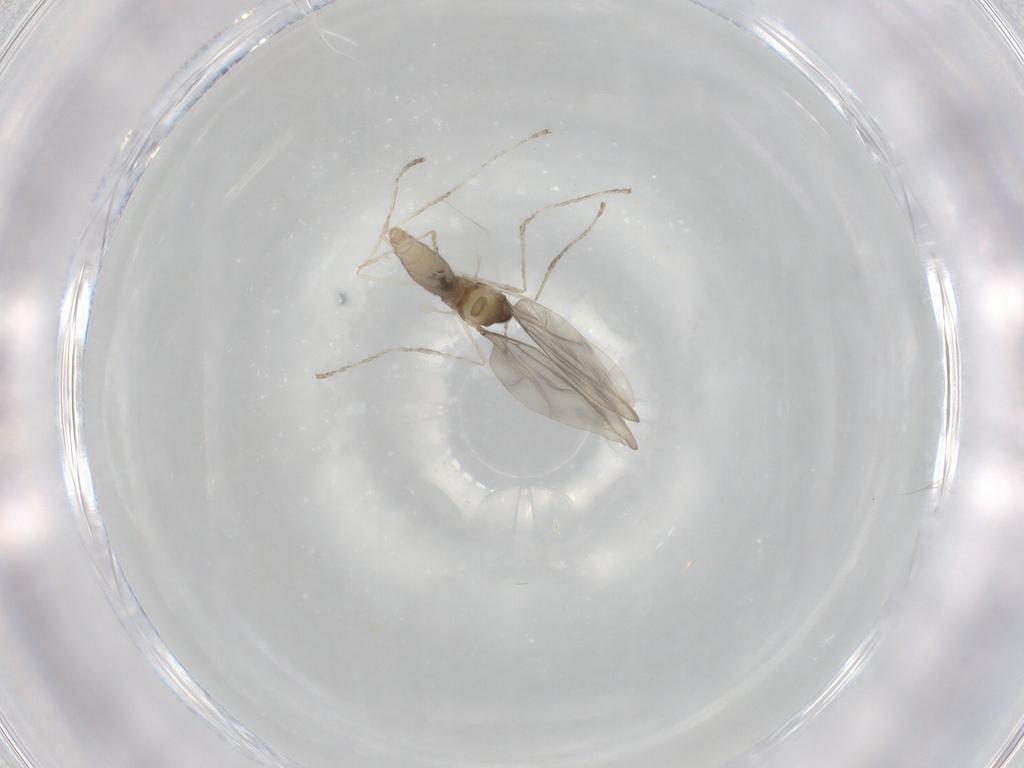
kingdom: Animalia
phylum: Arthropoda
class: Insecta
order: Diptera
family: Cecidomyiidae
